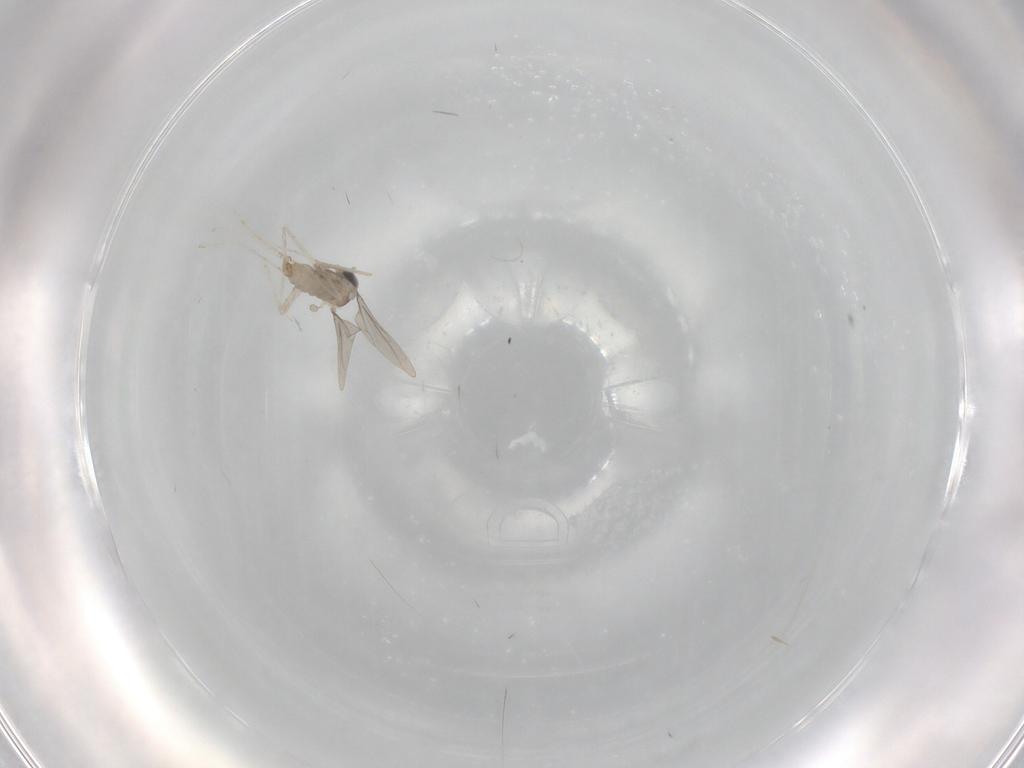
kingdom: Animalia
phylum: Arthropoda
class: Insecta
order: Diptera
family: Cecidomyiidae
